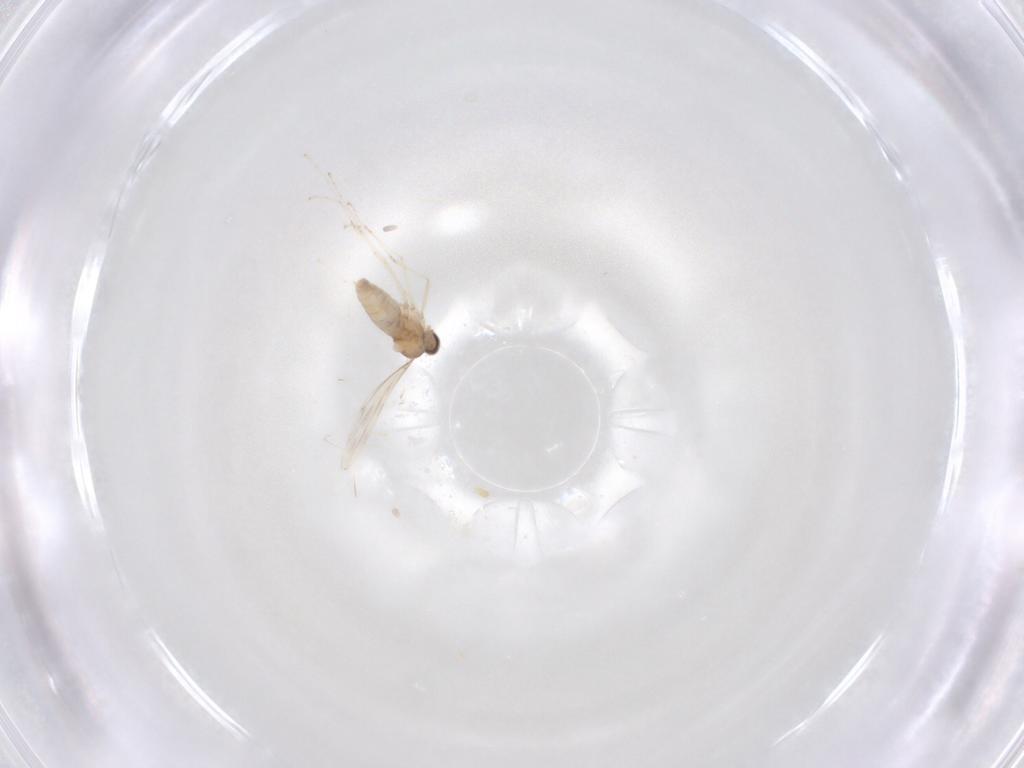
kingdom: Animalia
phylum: Arthropoda
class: Insecta
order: Diptera
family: Cecidomyiidae
